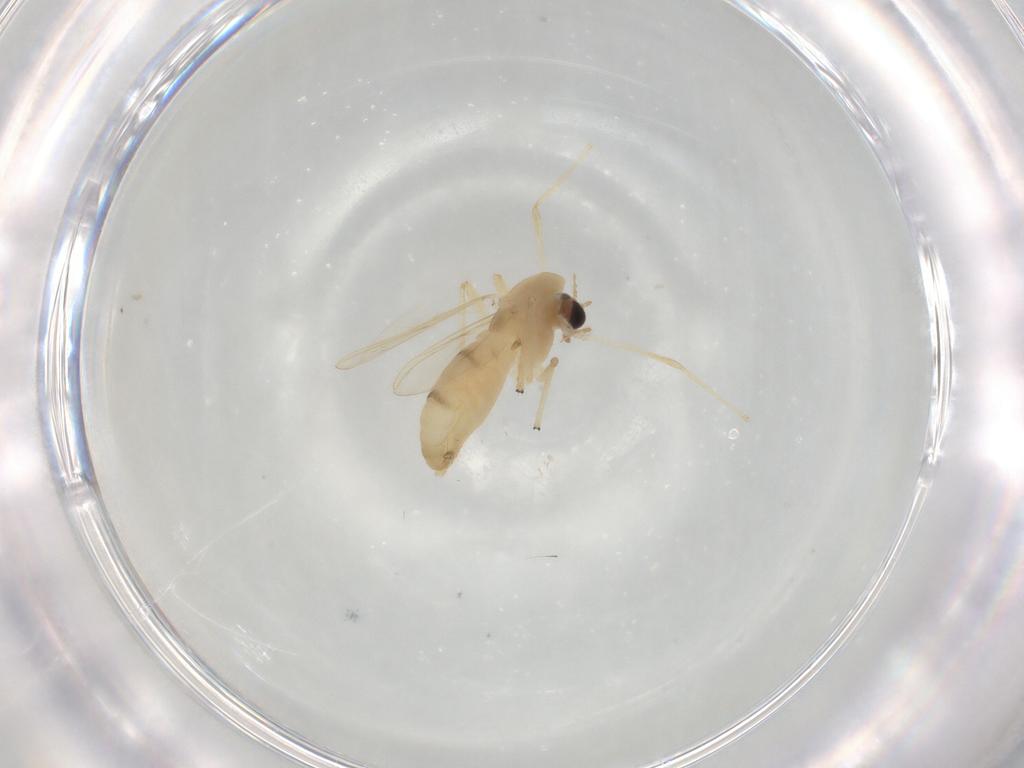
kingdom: Animalia
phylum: Arthropoda
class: Insecta
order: Diptera
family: Chironomidae
